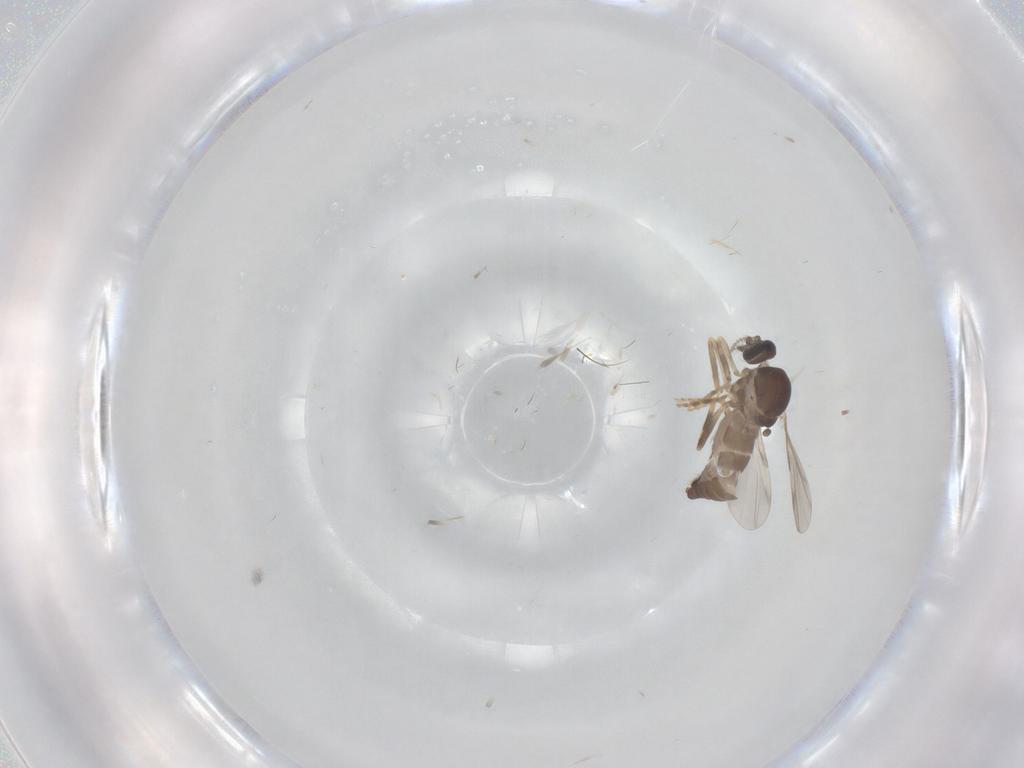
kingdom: Animalia
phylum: Arthropoda
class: Insecta
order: Diptera
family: Ceratopogonidae
